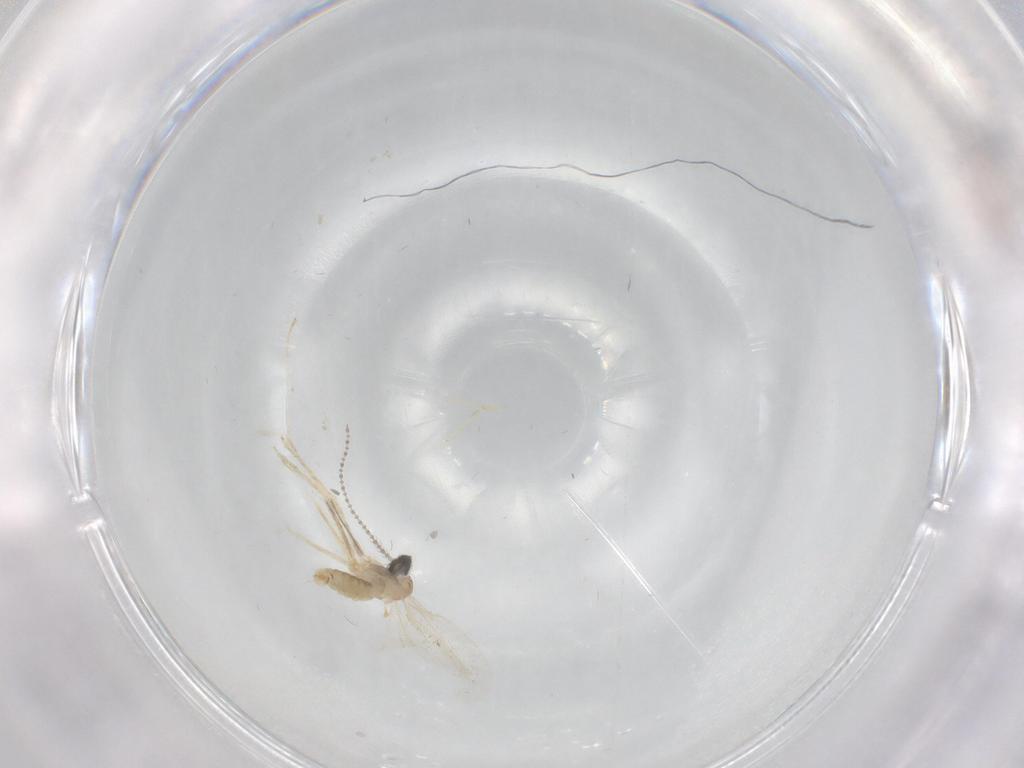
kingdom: Animalia
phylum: Arthropoda
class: Insecta
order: Diptera
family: Cecidomyiidae
